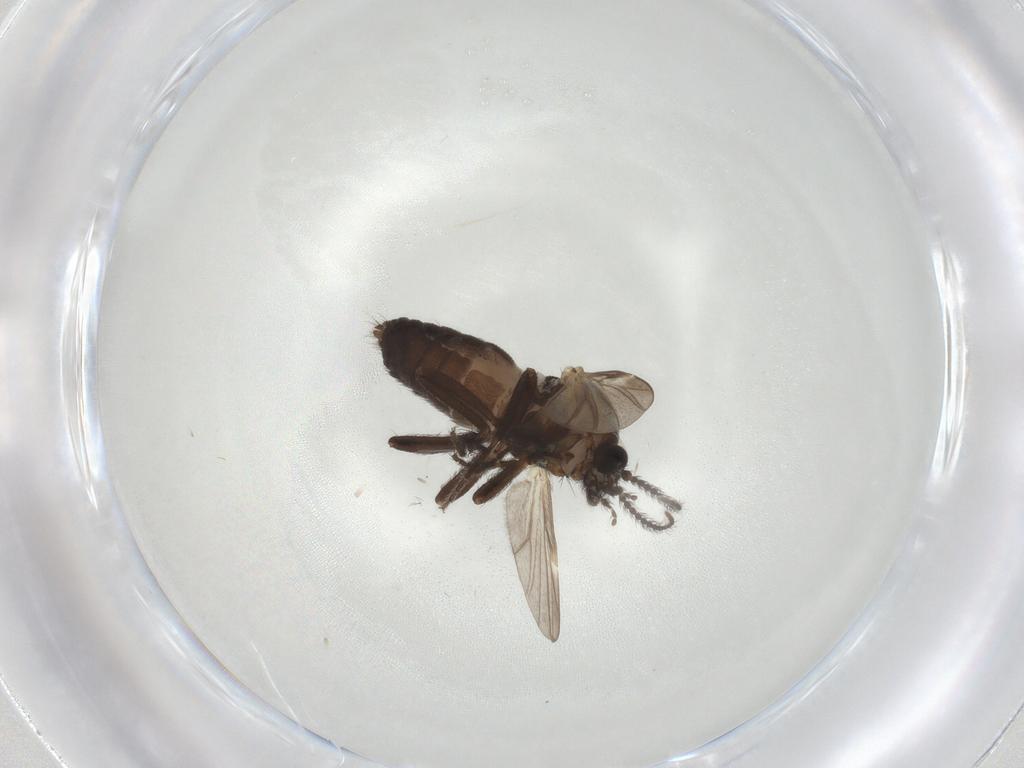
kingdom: Animalia
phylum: Arthropoda
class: Insecta
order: Diptera
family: Ceratopogonidae
